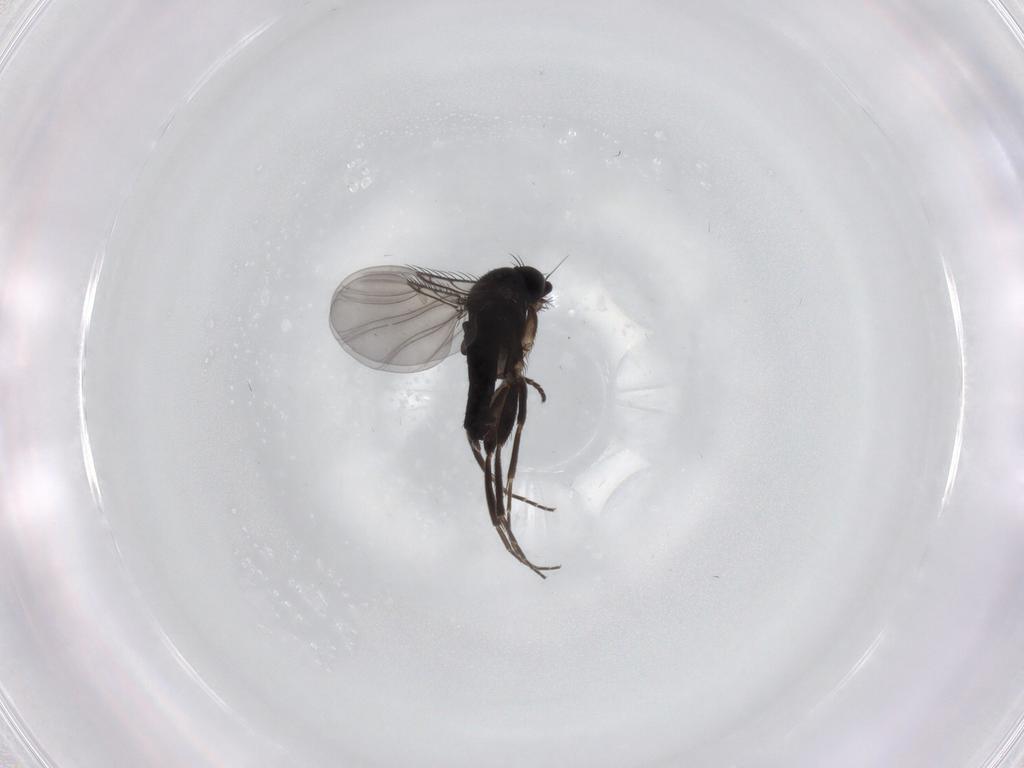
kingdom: Animalia
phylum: Arthropoda
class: Insecta
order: Diptera
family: Phoridae
